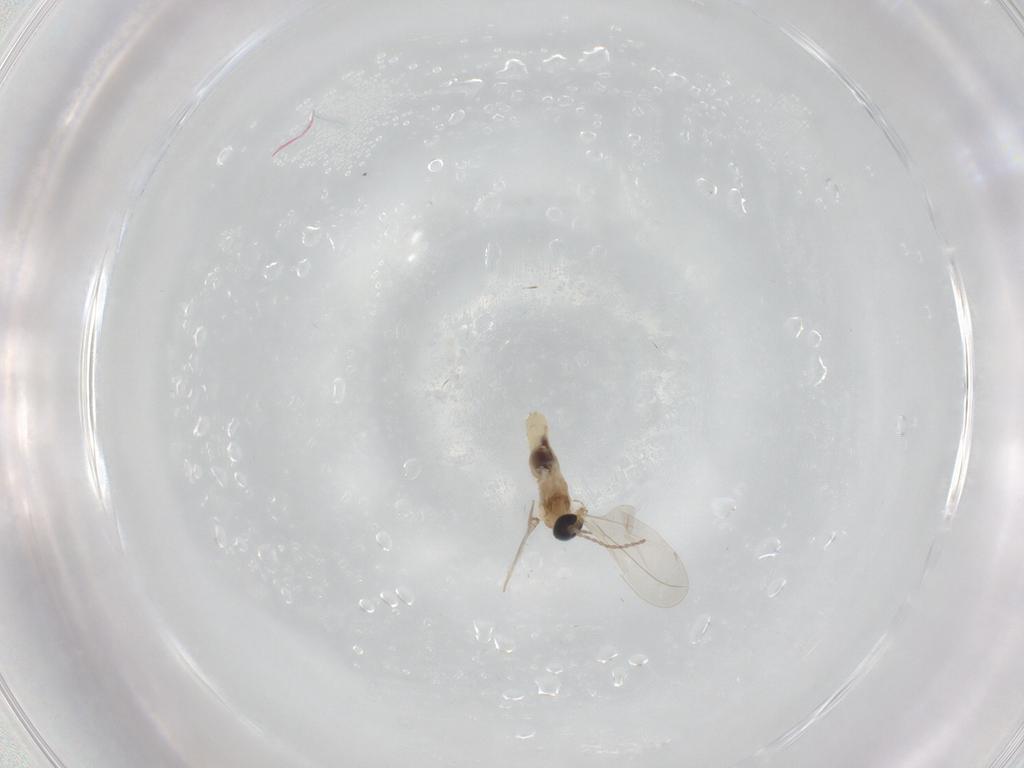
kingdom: Animalia
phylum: Arthropoda
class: Insecta
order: Diptera
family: Cecidomyiidae
